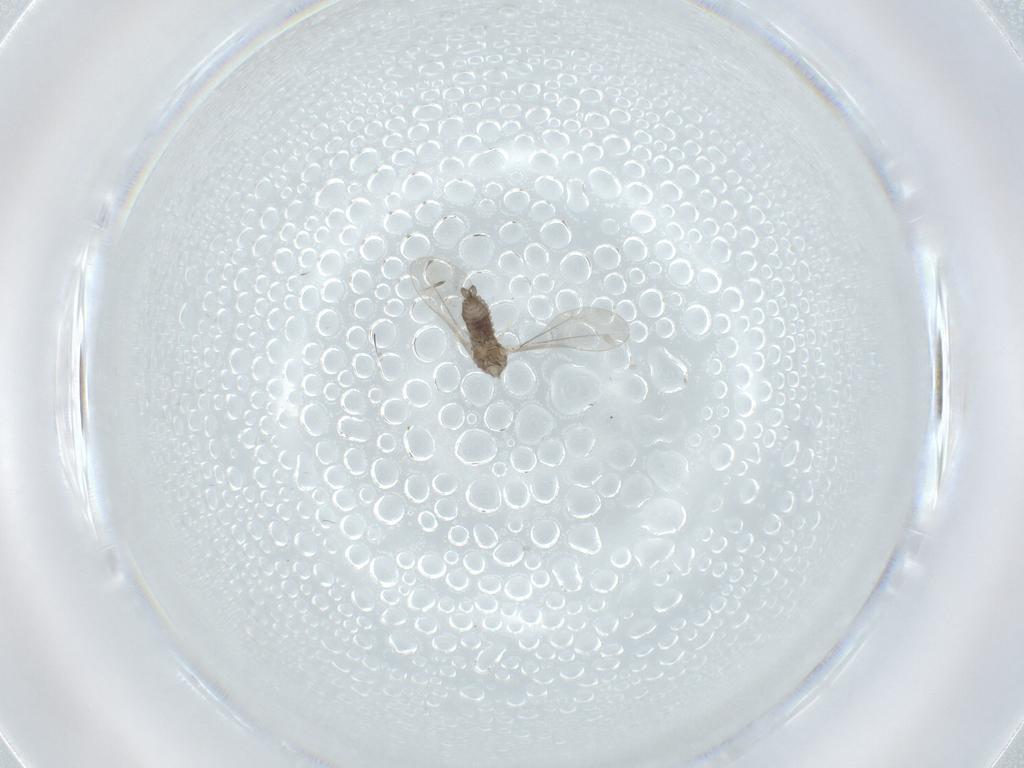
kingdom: Animalia
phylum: Arthropoda
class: Insecta
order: Diptera
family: Cecidomyiidae
